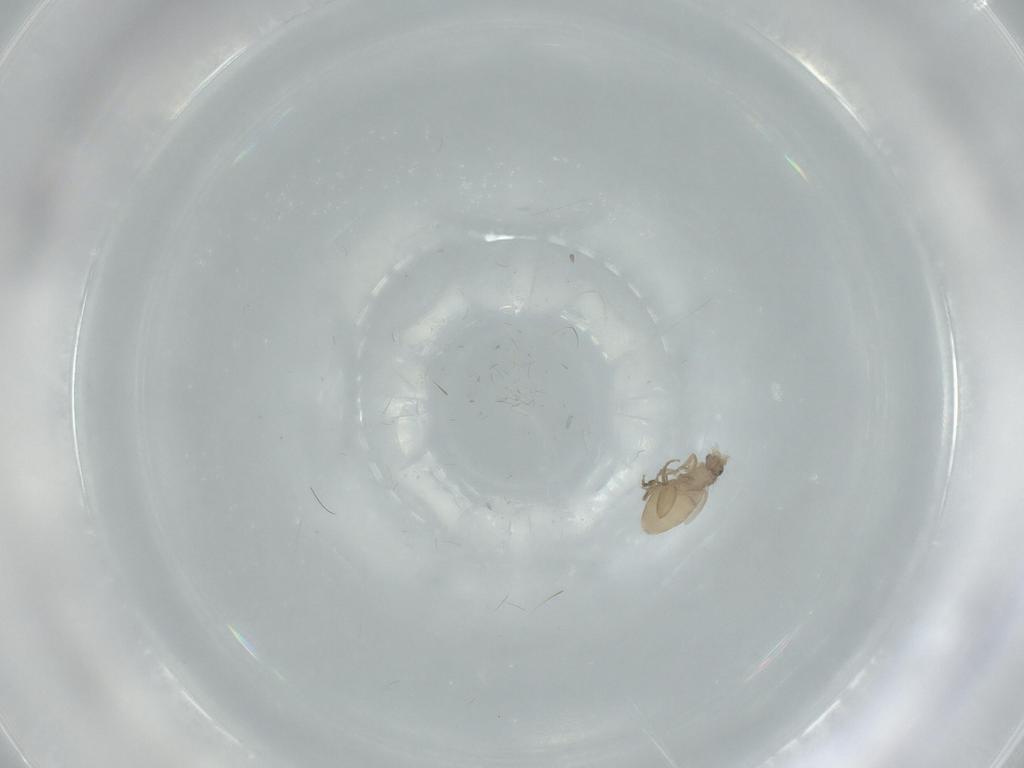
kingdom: Animalia
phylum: Arthropoda
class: Insecta
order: Diptera
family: Phoridae
